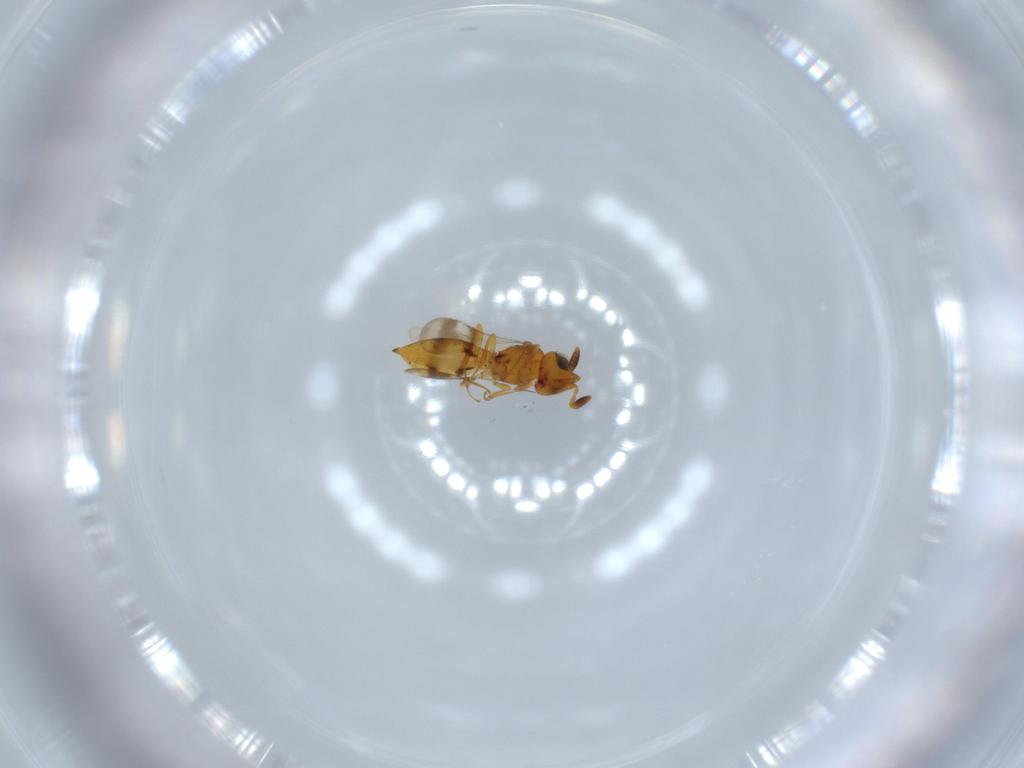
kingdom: Animalia
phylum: Arthropoda
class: Insecta
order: Hymenoptera
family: Scelionidae
